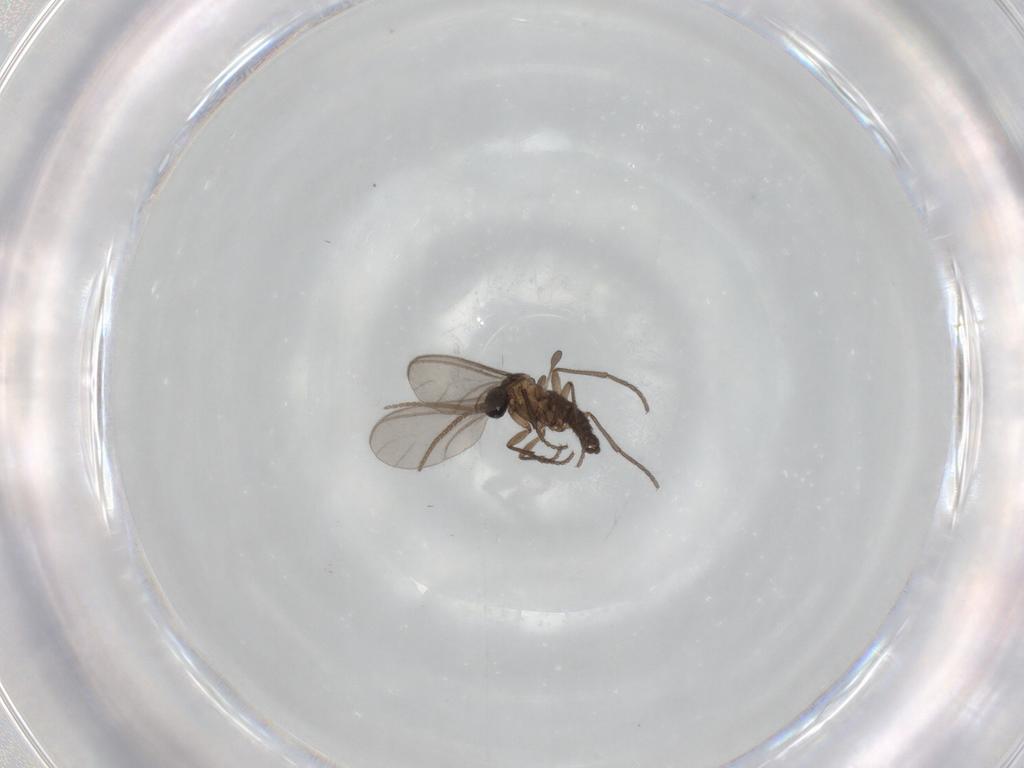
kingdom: Animalia
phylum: Arthropoda
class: Insecta
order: Diptera
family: Sciaridae
